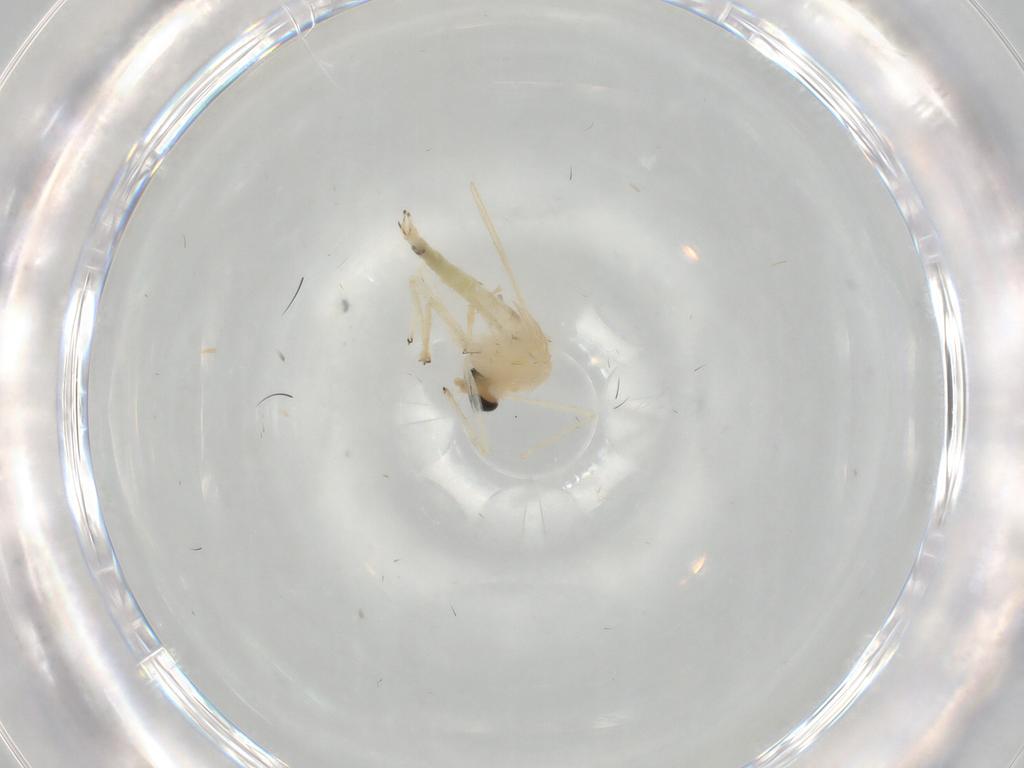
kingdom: Animalia
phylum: Arthropoda
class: Insecta
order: Diptera
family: Chironomidae
